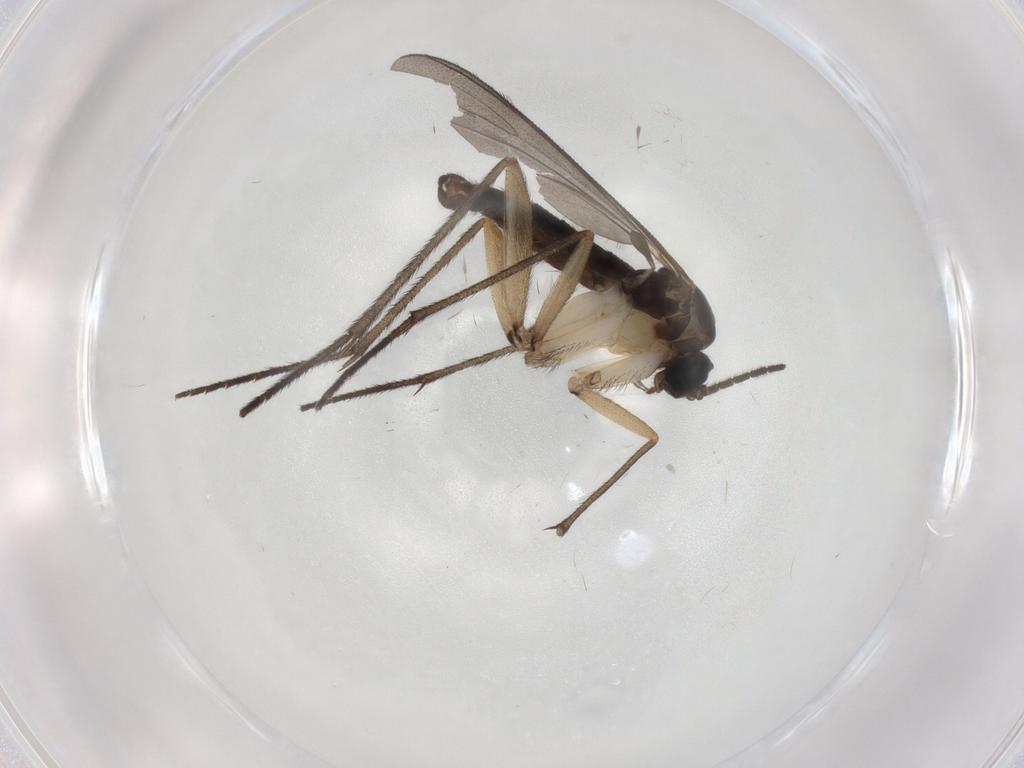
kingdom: Animalia
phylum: Arthropoda
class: Insecta
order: Diptera
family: Sciaridae
